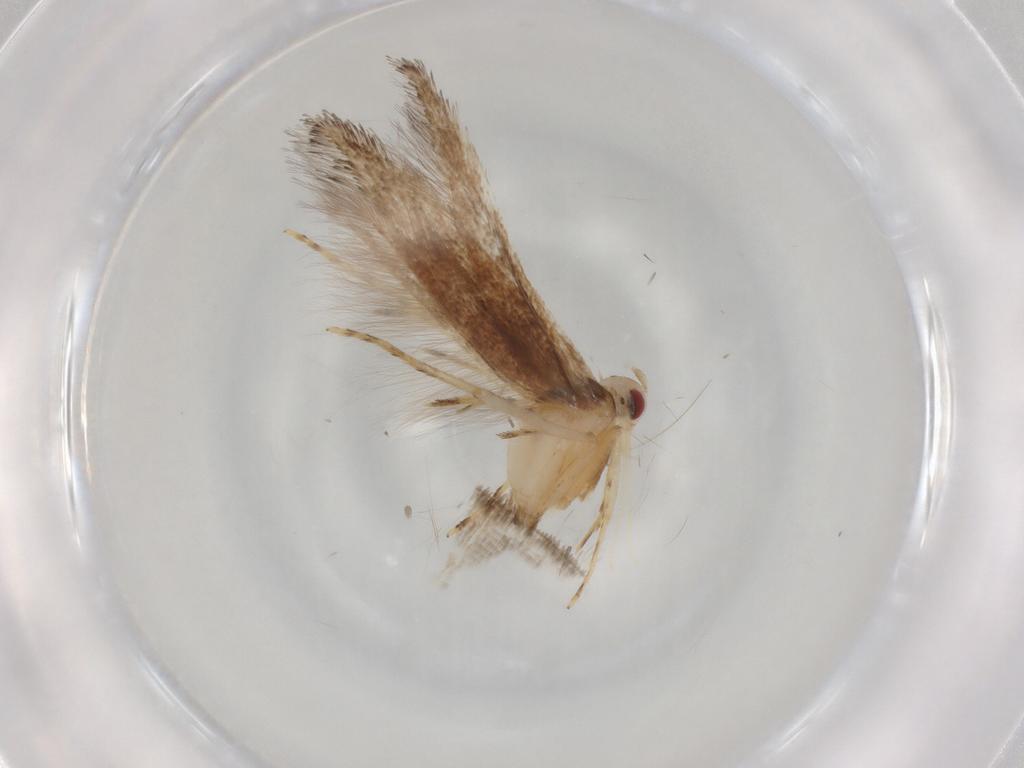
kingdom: Animalia
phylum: Arthropoda
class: Insecta
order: Lepidoptera
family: Cosmopterigidae
